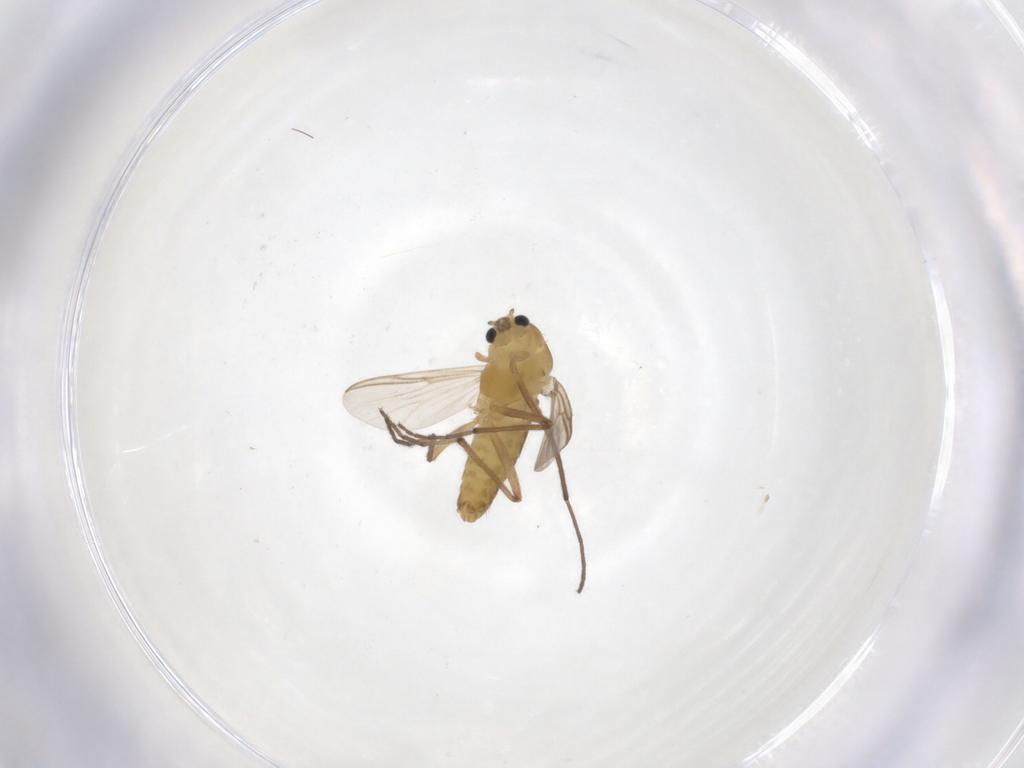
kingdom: Animalia
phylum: Arthropoda
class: Insecta
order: Diptera
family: Chironomidae
